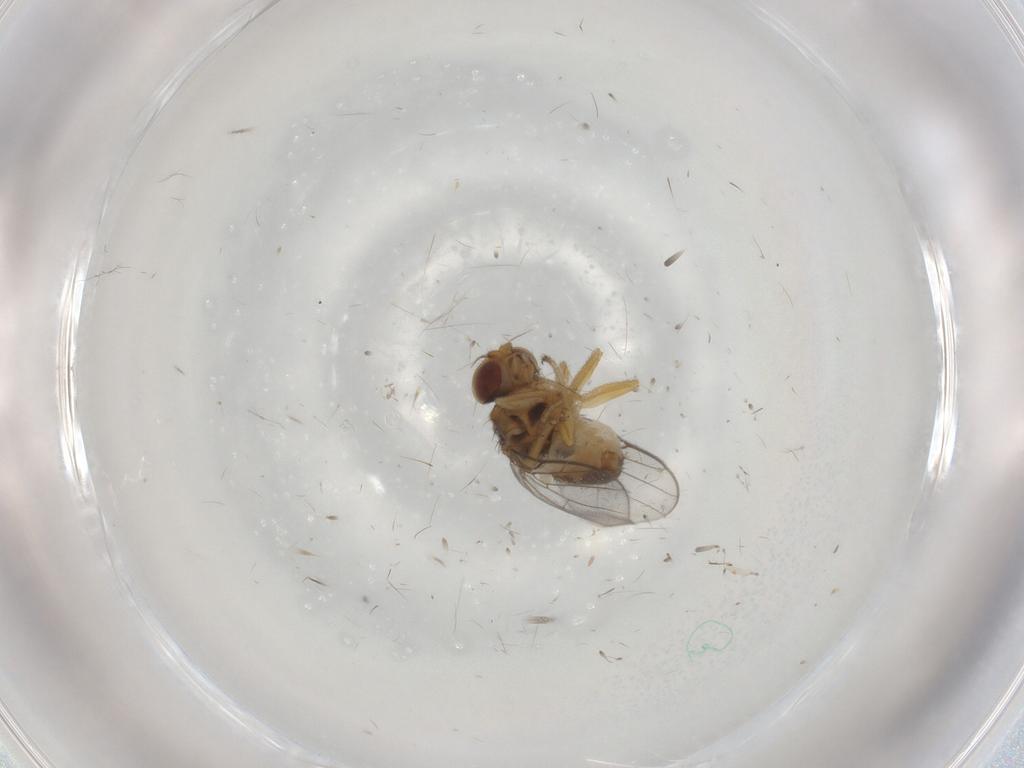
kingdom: Animalia
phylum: Arthropoda
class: Insecta
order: Diptera
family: Chloropidae
